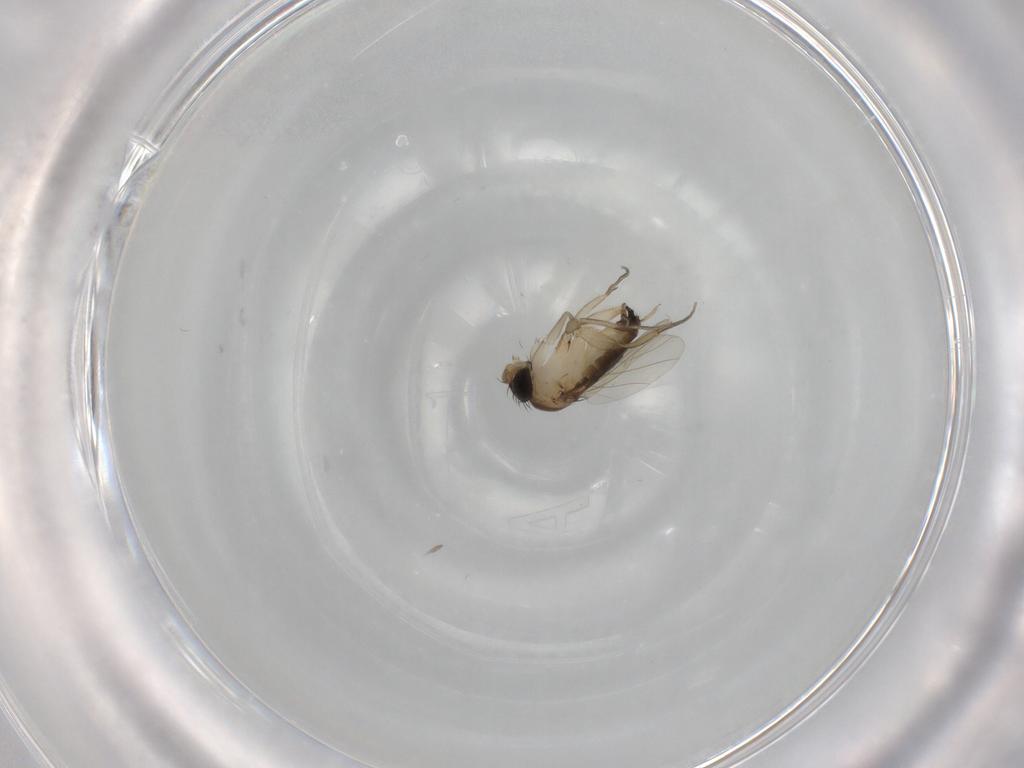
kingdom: Animalia
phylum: Arthropoda
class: Insecta
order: Diptera
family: Phoridae
